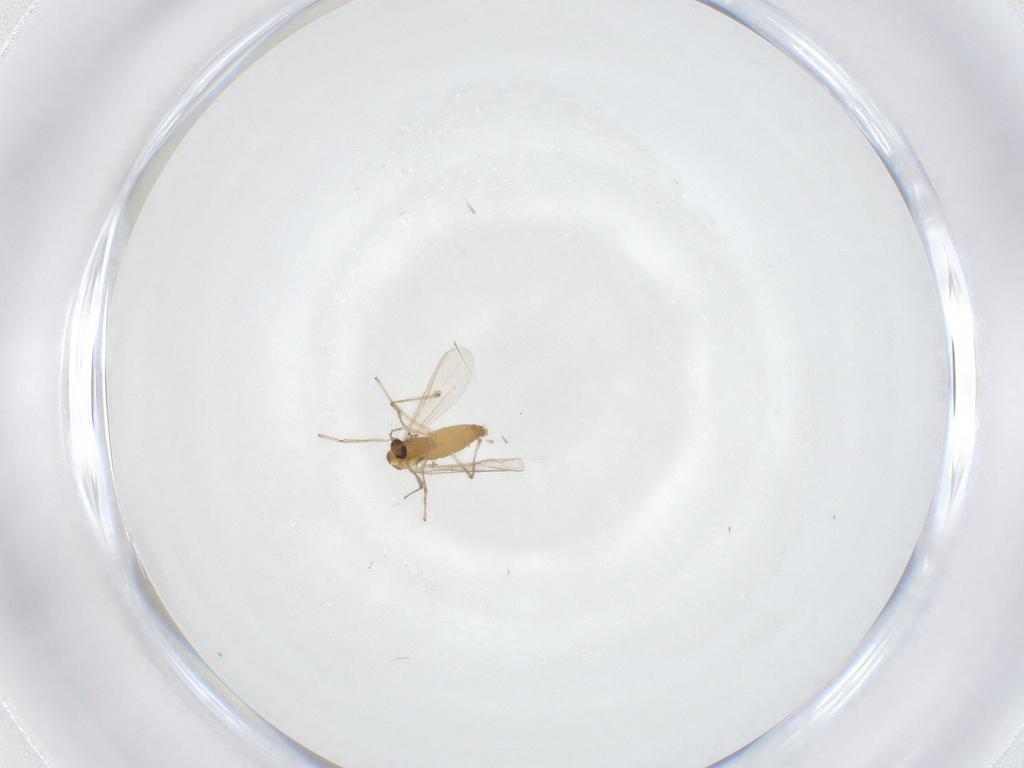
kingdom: Animalia
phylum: Arthropoda
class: Insecta
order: Diptera
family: Chironomidae
